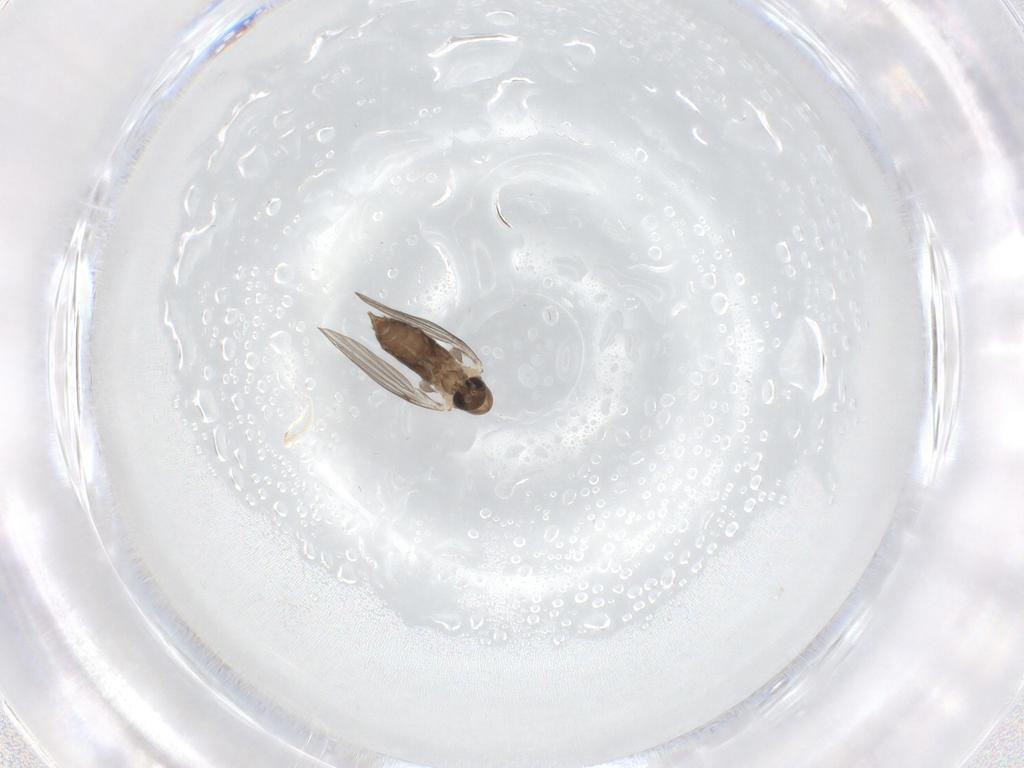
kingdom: Animalia
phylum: Arthropoda
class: Insecta
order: Diptera
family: Psychodidae
